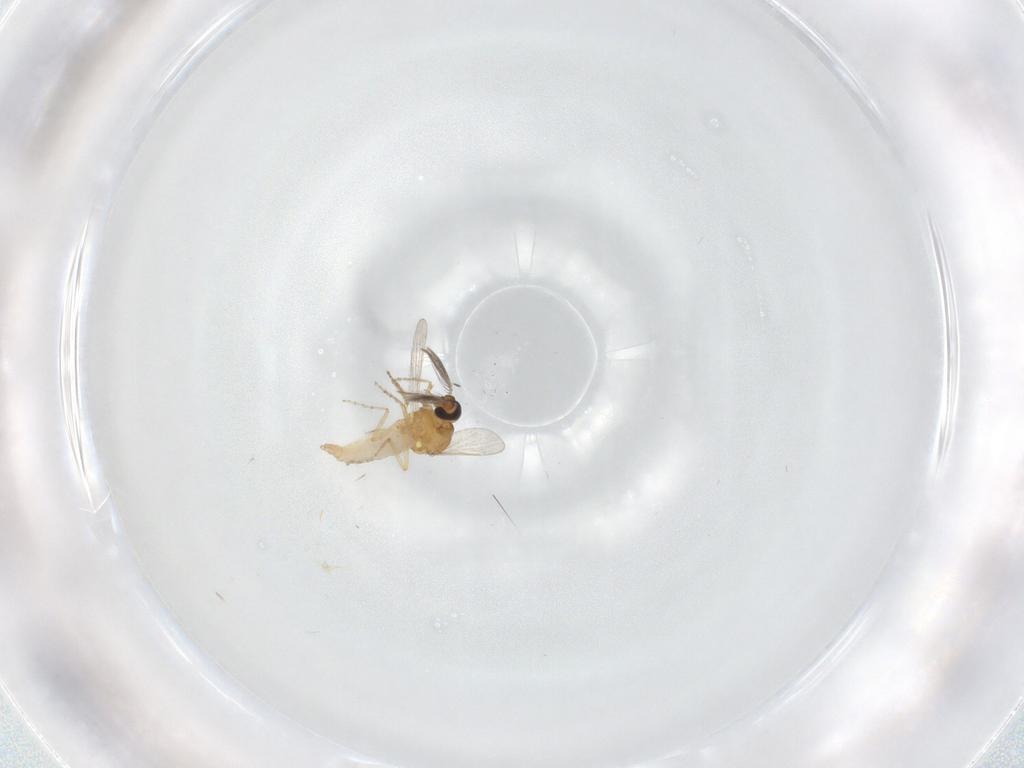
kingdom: Animalia
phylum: Arthropoda
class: Insecta
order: Diptera
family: Cecidomyiidae
